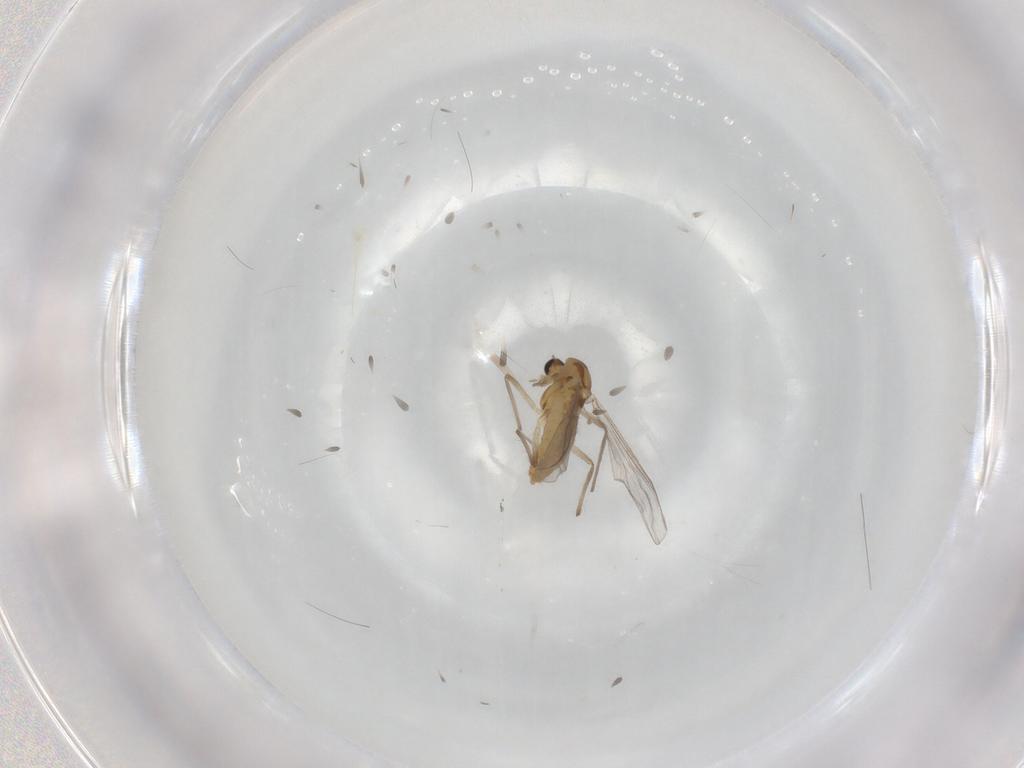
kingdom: Animalia
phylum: Arthropoda
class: Insecta
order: Diptera
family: Chironomidae
